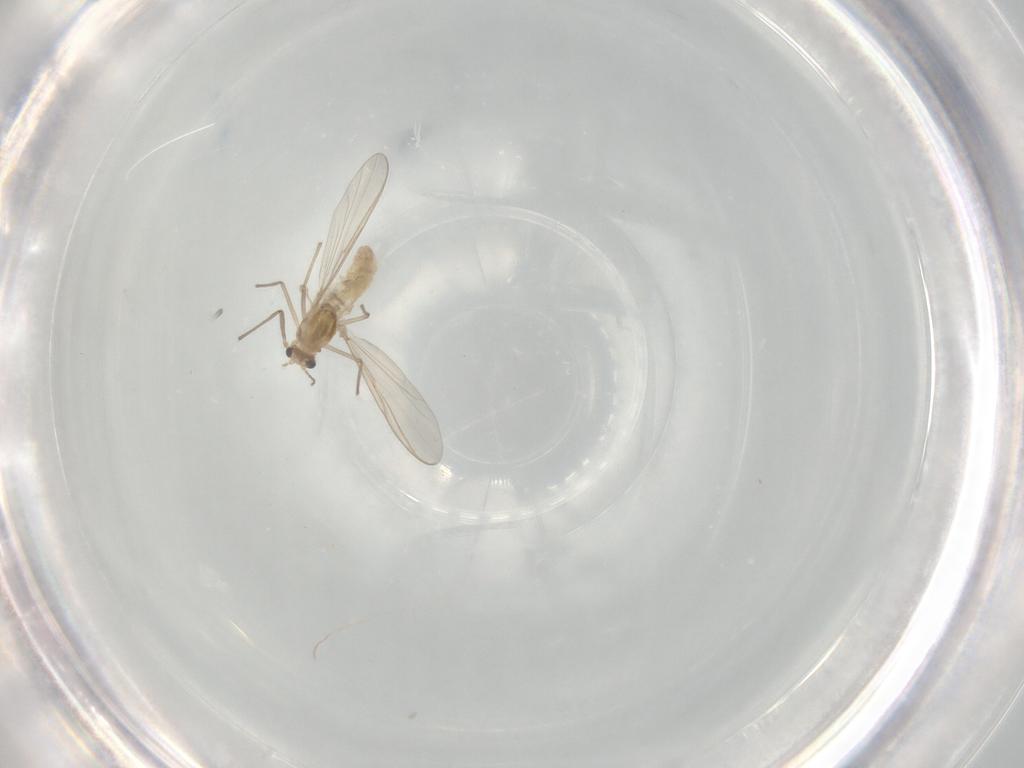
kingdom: Animalia
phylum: Arthropoda
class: Insecta
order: Diptera
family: Chironomidae
